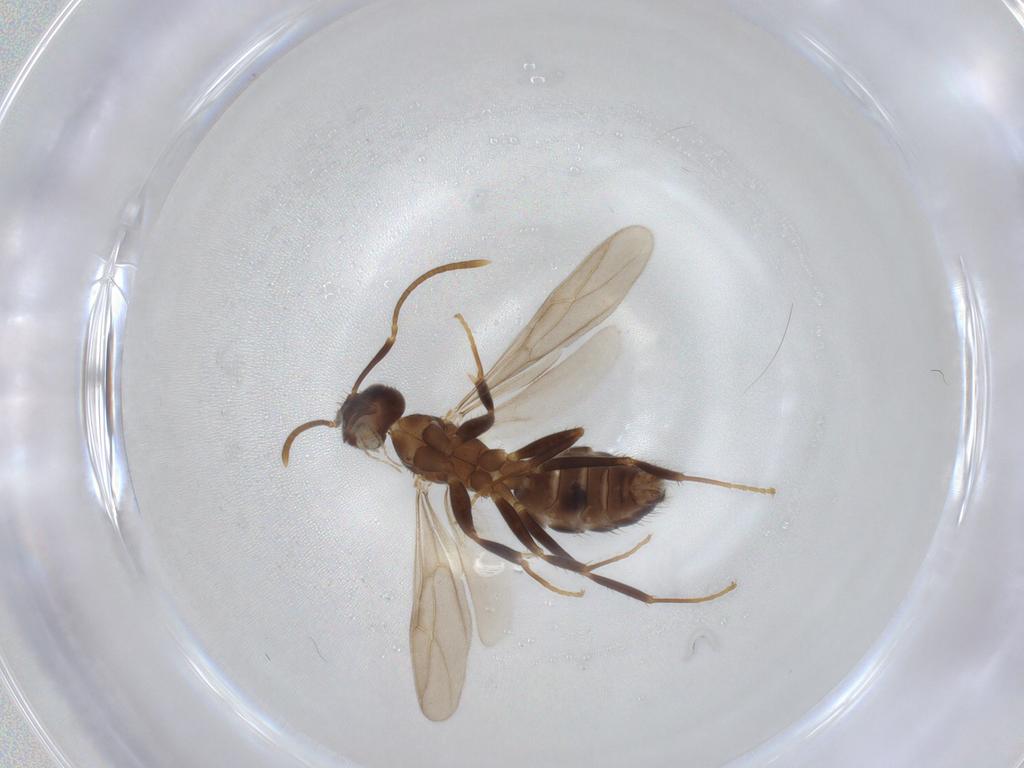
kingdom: Animalia
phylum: Arthropoda
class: Insecta
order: Hymenoptera
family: Formicidae
